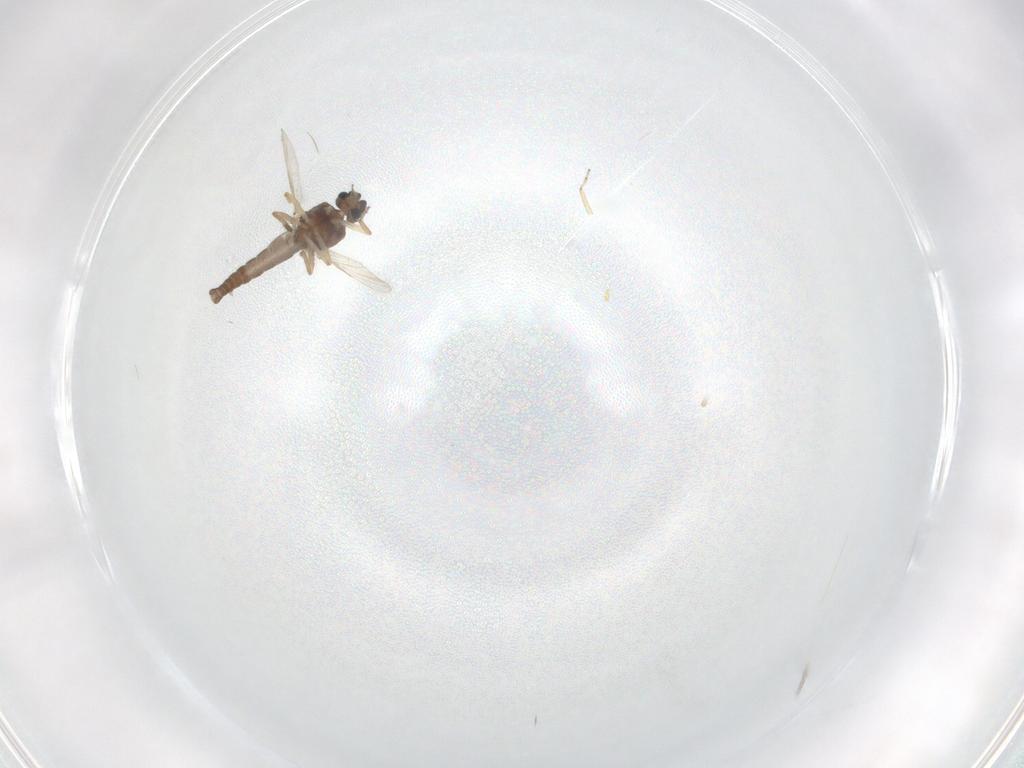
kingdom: Animalia
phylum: Arthropoda
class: Insecta
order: Diptera
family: Ceratopogonidae
